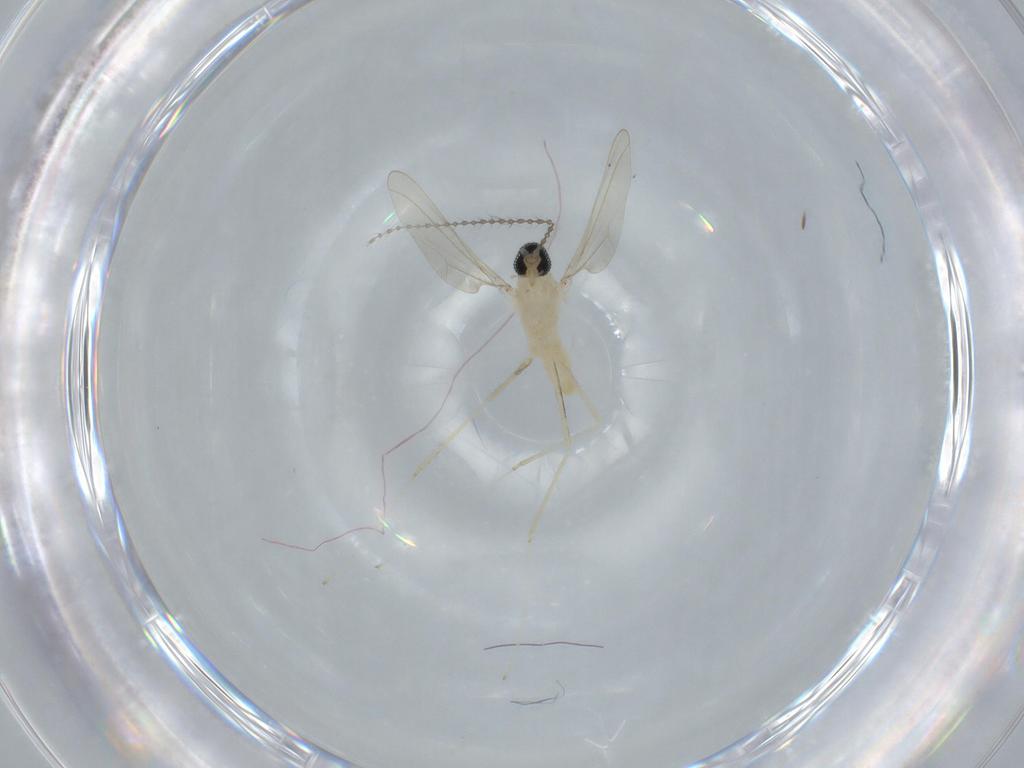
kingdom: Animalia
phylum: Arthropoda
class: Insecta
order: Diptera
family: Cecidomyiidae
